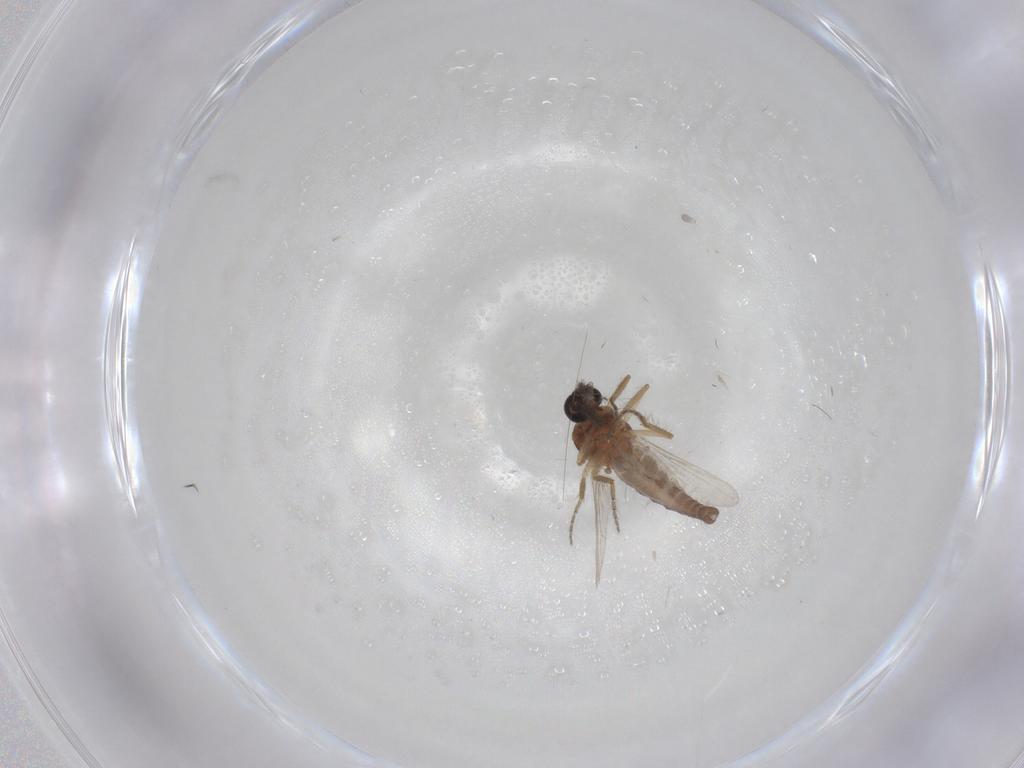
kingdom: Animalia
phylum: Arthropoda
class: Insecta
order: Diptera
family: Ceratopogonidae
